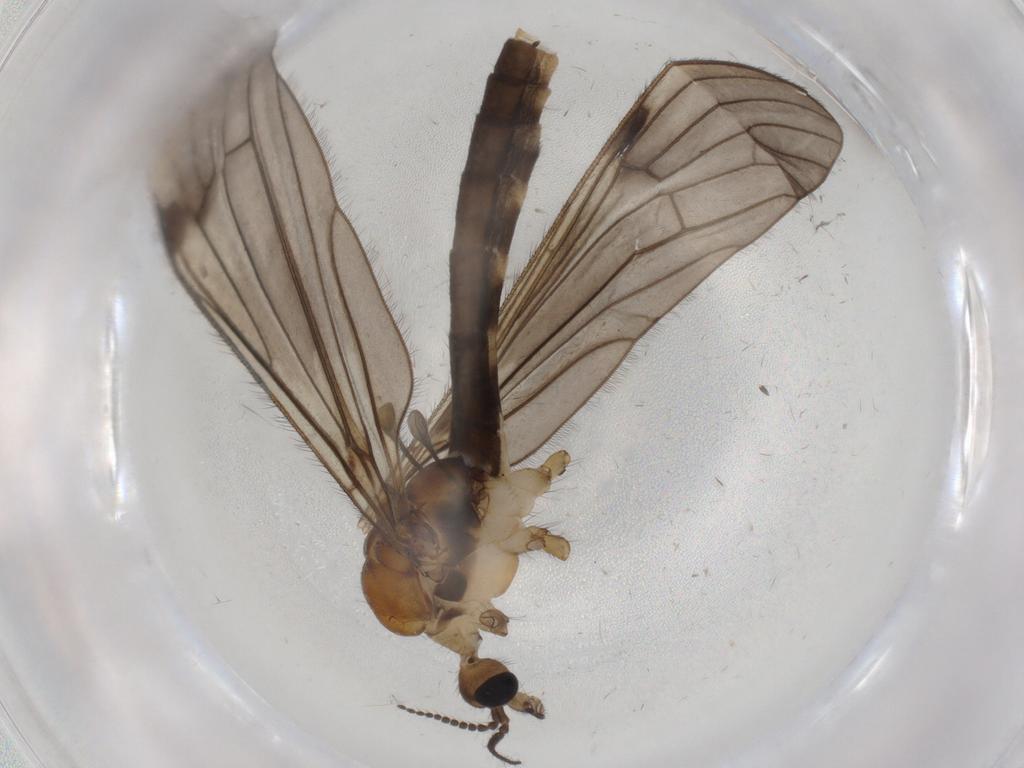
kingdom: Animalia
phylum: Arthropoda
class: Insecta
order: Diptera
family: Limoniidae
